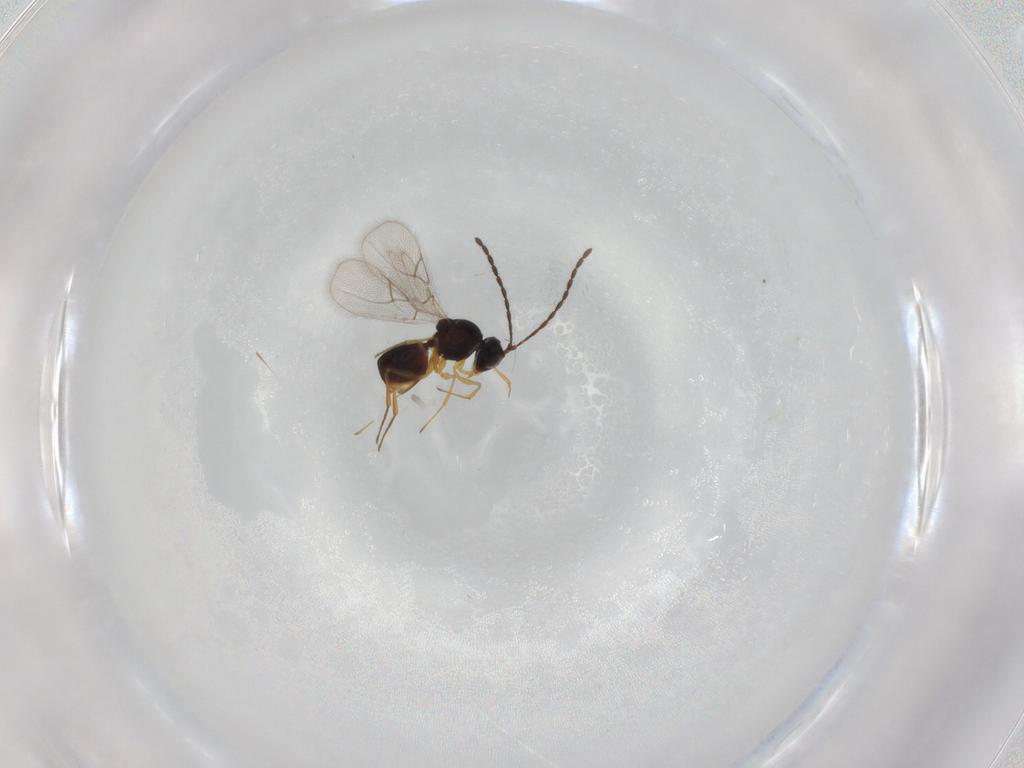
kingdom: Animalia
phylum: Arthropoda
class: Insecta
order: Hymenoptera
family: Figitidae
